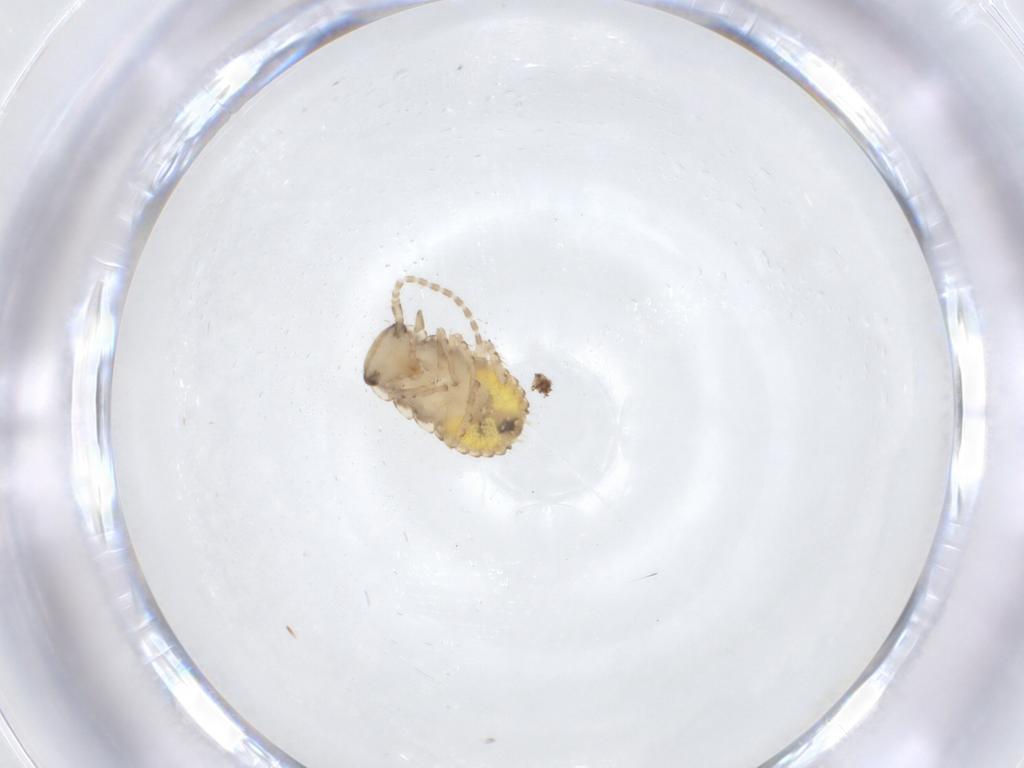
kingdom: Animalia
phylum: Arthropoda
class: Insecta
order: Blattodea
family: Ectobiidae
